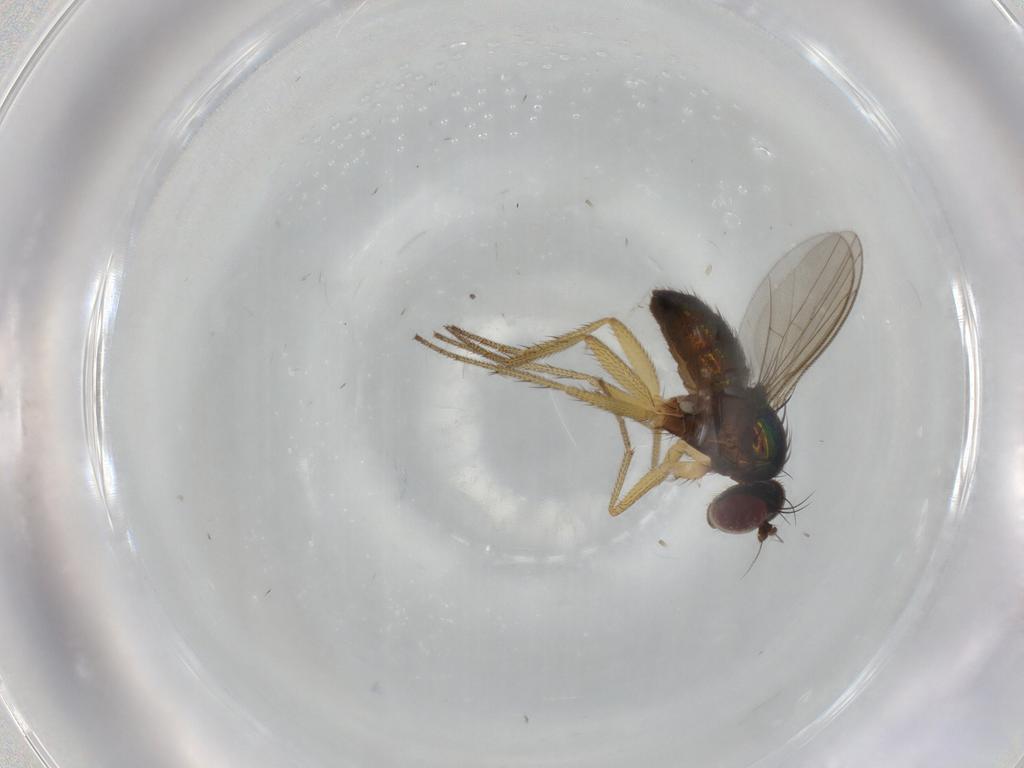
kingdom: Animalia
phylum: Arthropoda
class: Insecta
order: Diptera
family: Dolichopodidae
